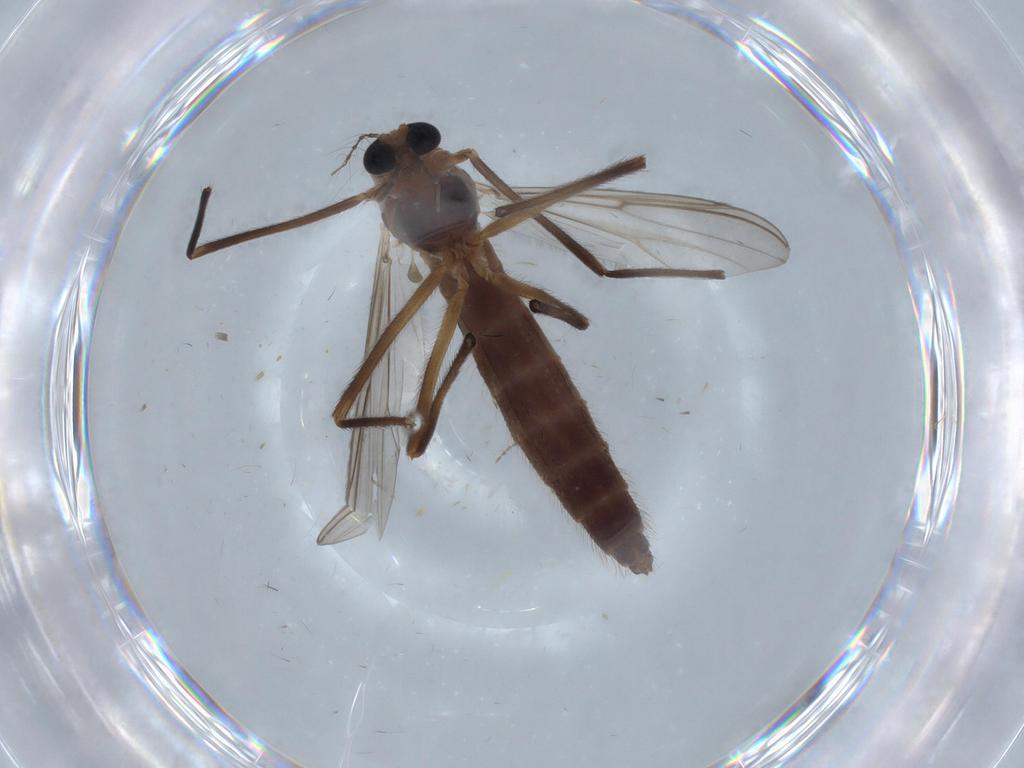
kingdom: Animalia
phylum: Arthropoda
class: Insecta
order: Diptera
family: Chironomidae
